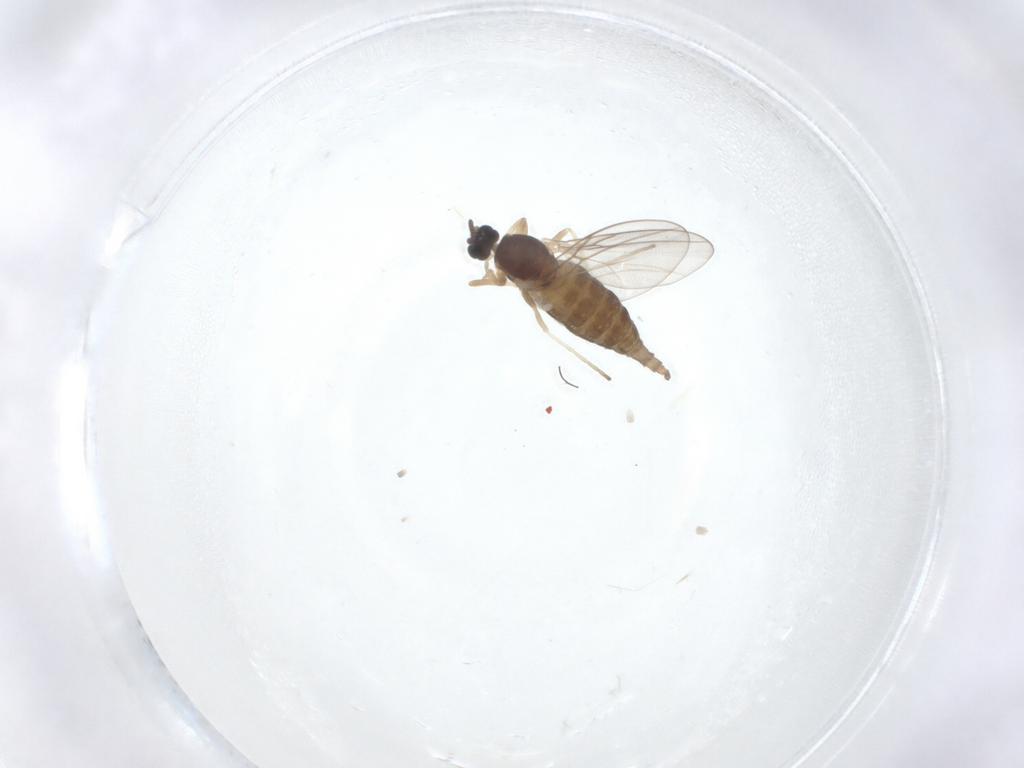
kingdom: Animalia
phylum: Arthropoda
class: Insecta
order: Diptera
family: Cecidomyiidae
